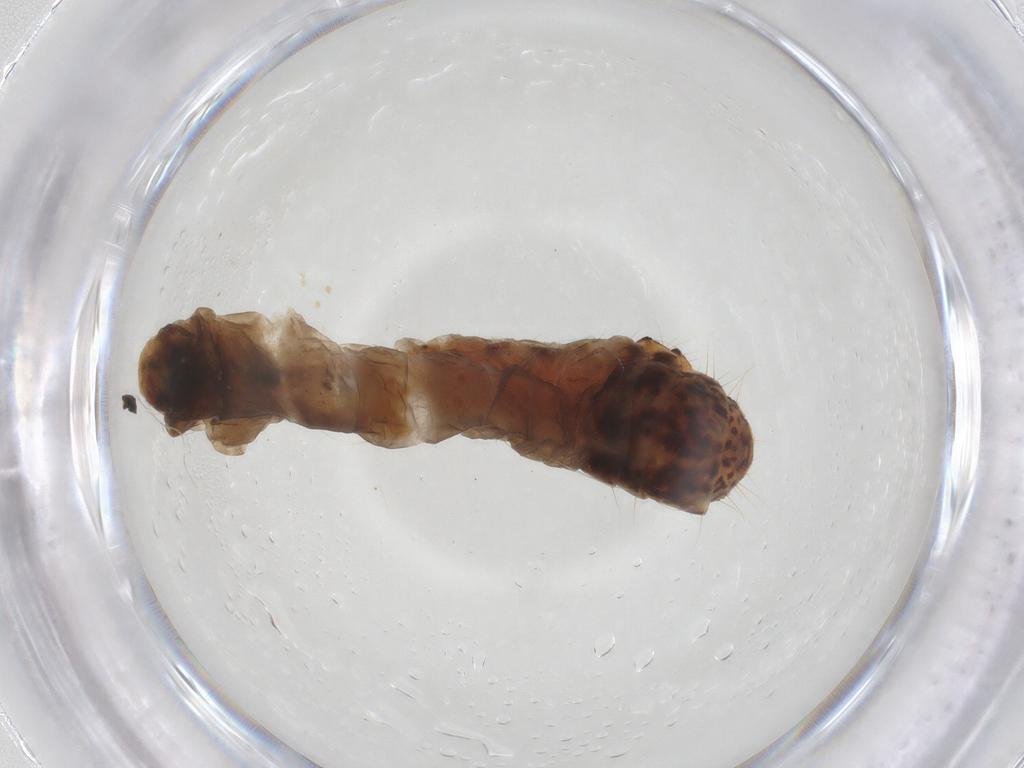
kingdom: Animalia
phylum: Arthropoda
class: Insecta
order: Lepidoptera
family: Psychidae
